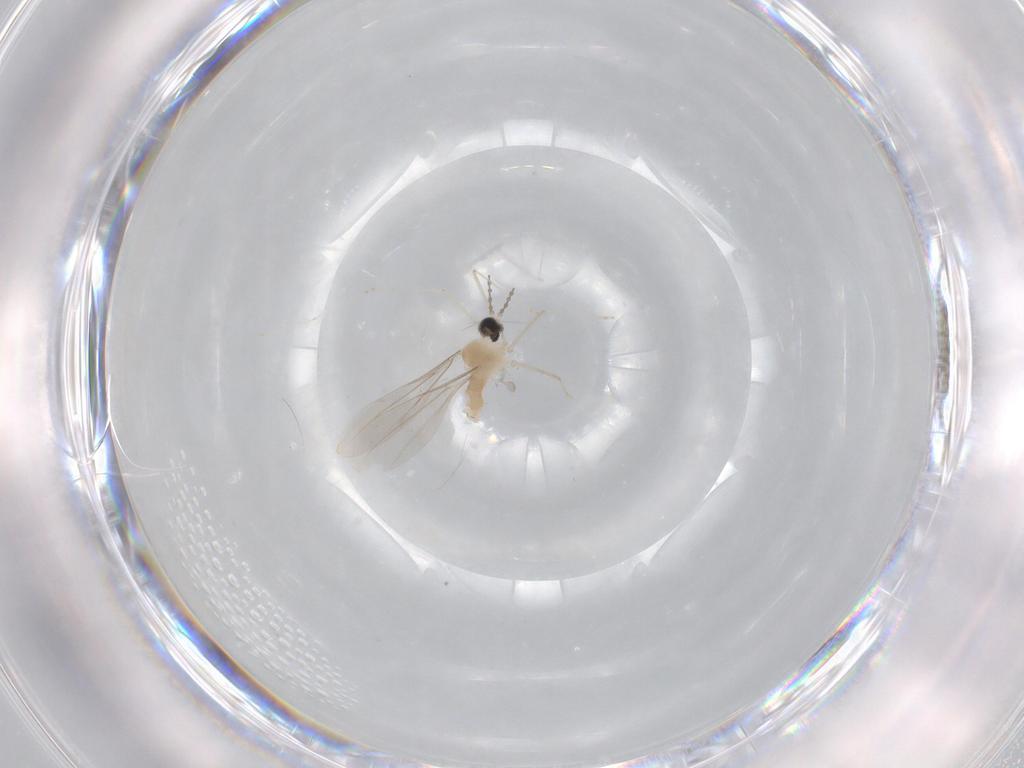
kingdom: Animalia
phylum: Arthropoda
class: Insecta
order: Diptera
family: Cecidomyiidae
